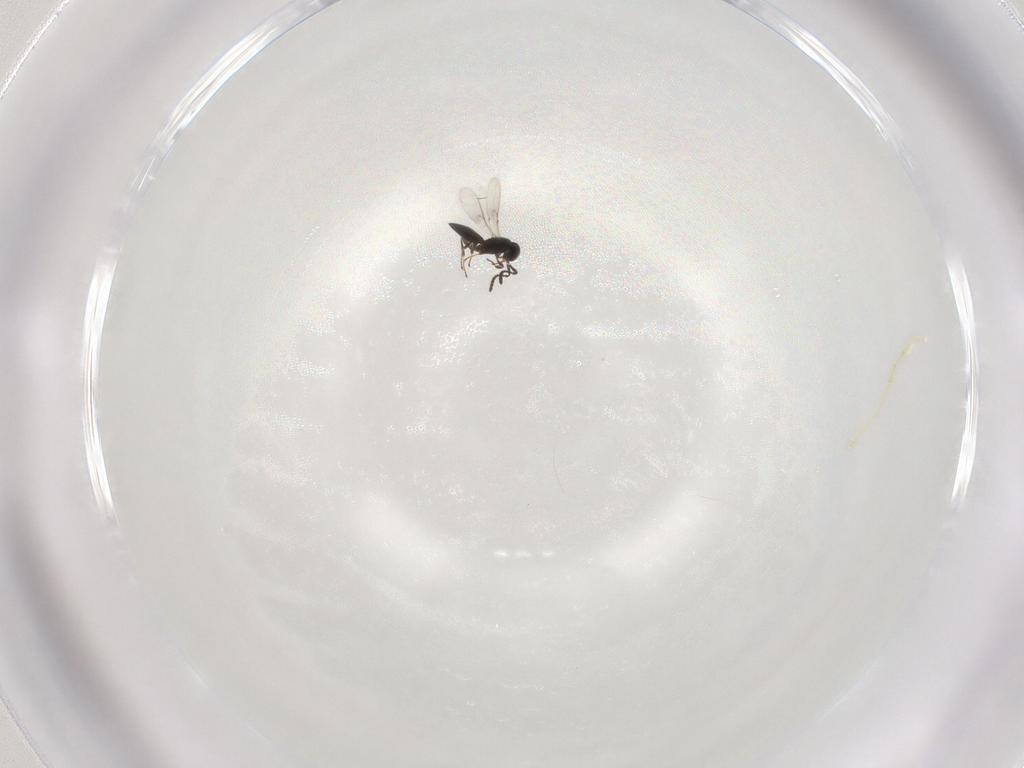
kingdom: Animalia
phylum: Arthropoda
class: Insecta
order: Hymenoptera
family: Scelionidae
